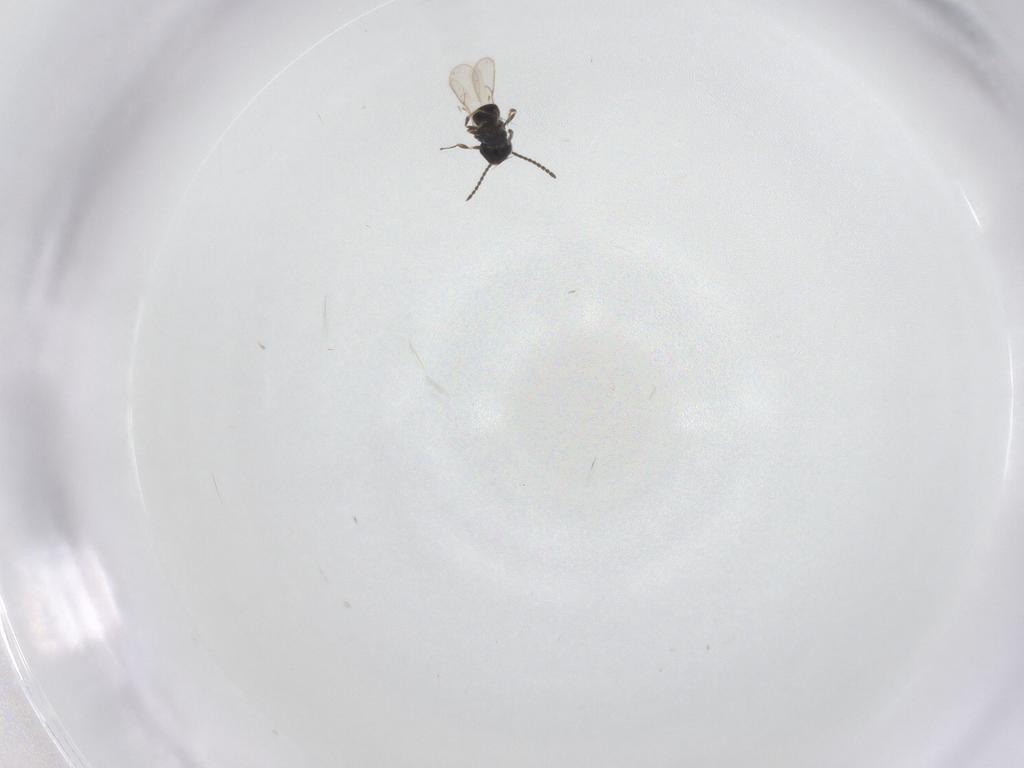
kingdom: Animalia
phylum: Arthropoda
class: Insecta
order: Hymenoptera
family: Scelionidae
